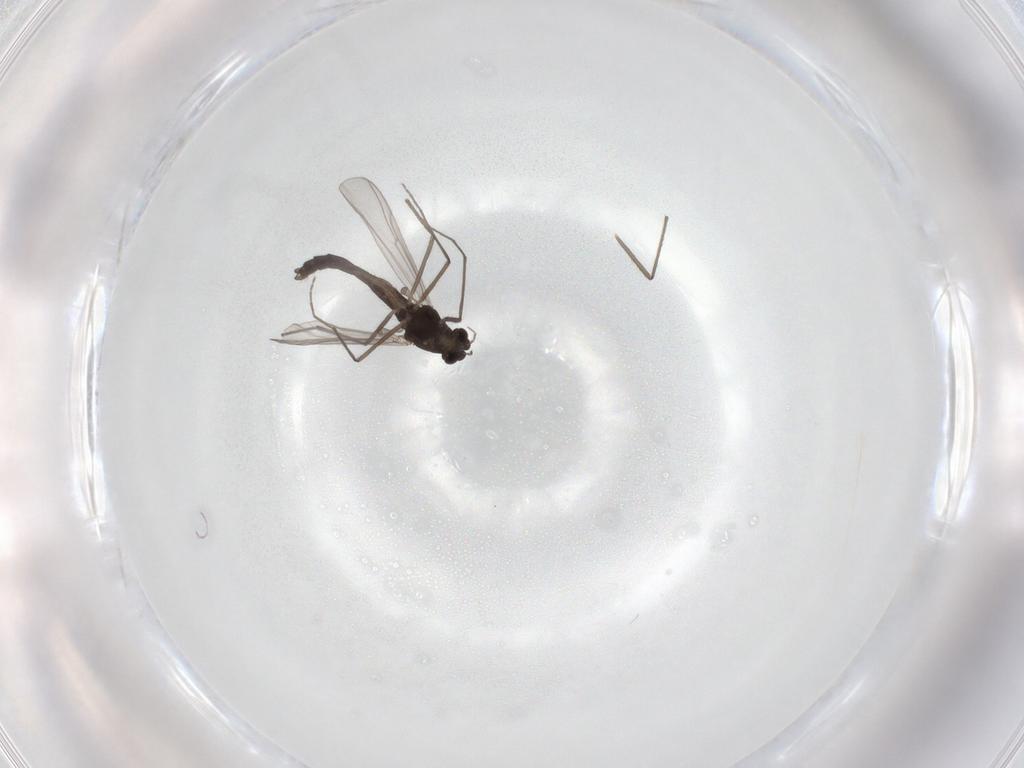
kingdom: Animalia
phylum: Arthropoda
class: Insecta
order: Diptera
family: Chironomidae
